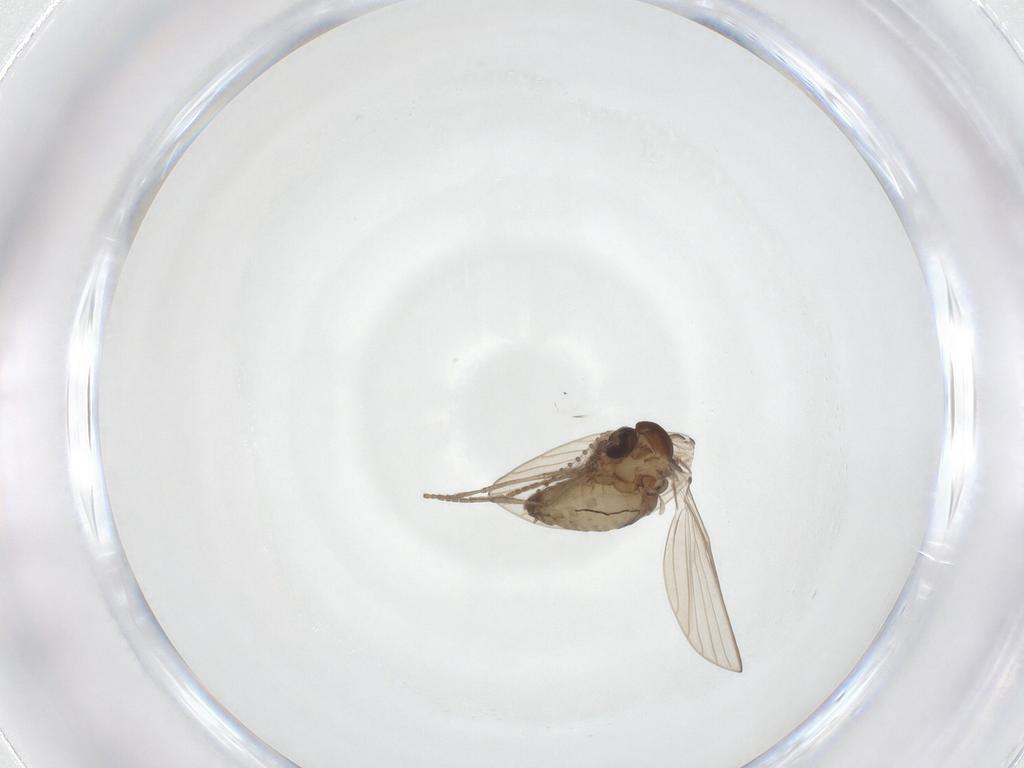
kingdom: Animalia
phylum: Arthropoda
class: Insecta
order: Diptera
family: Psychodidae
